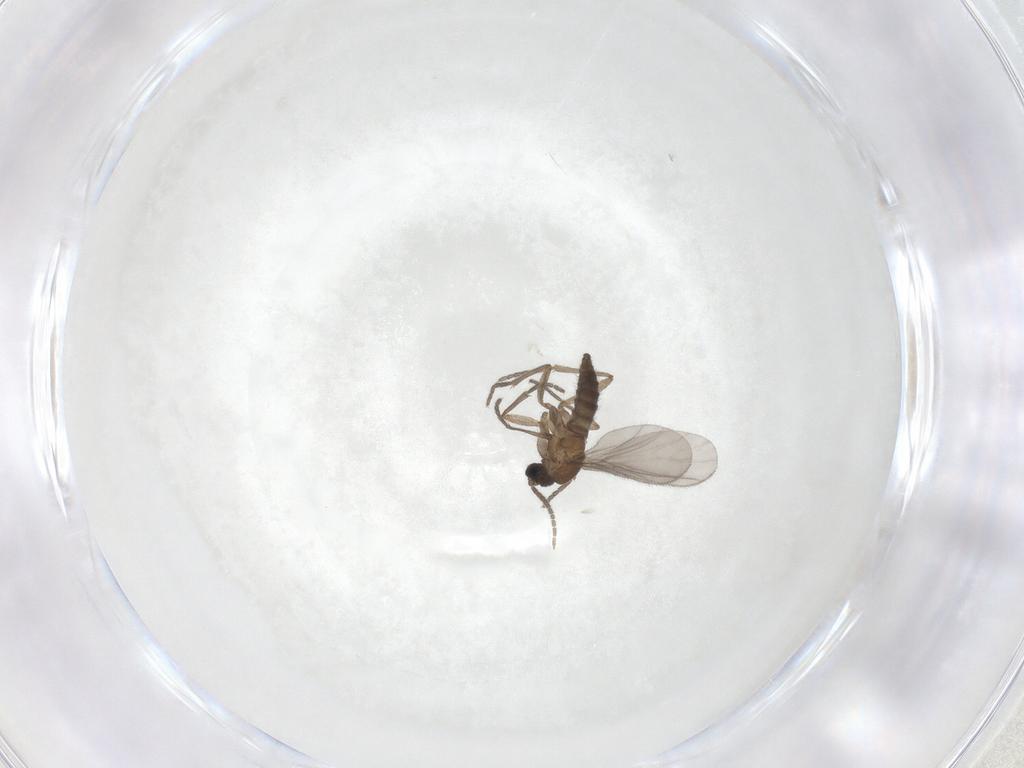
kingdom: Animalia
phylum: Arthropoda
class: Insecta
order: Diptera
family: Sciaridae
